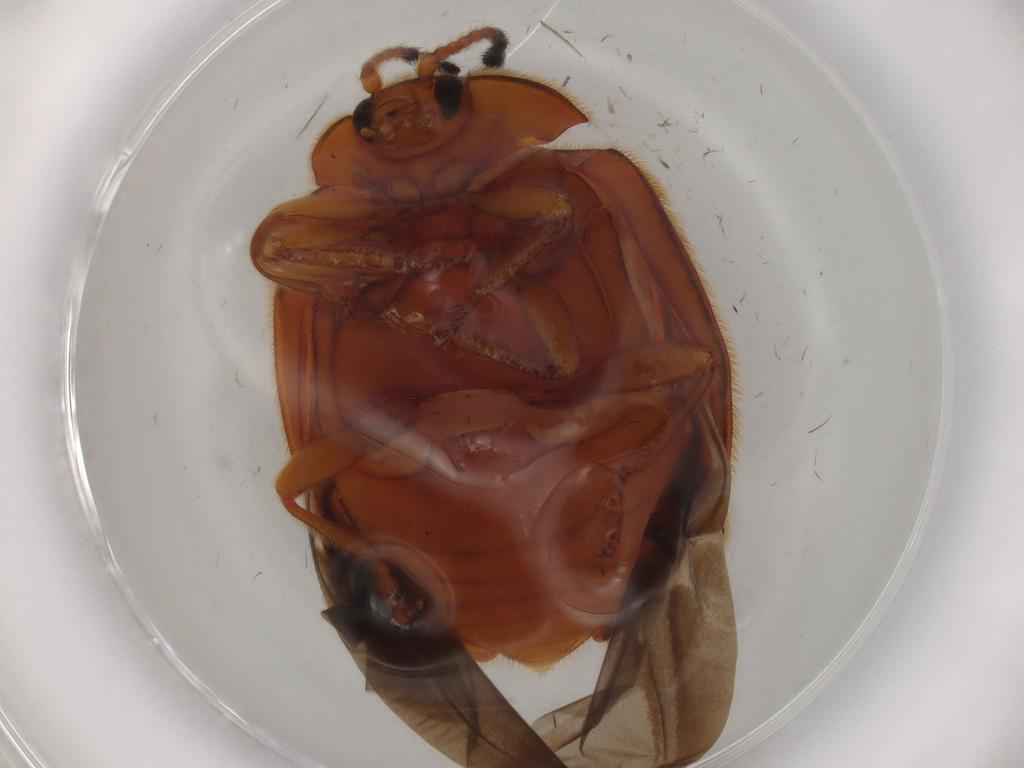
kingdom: Animalia
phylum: Arthropoda
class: Insecta
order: Coleoptera
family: Endomychidae
